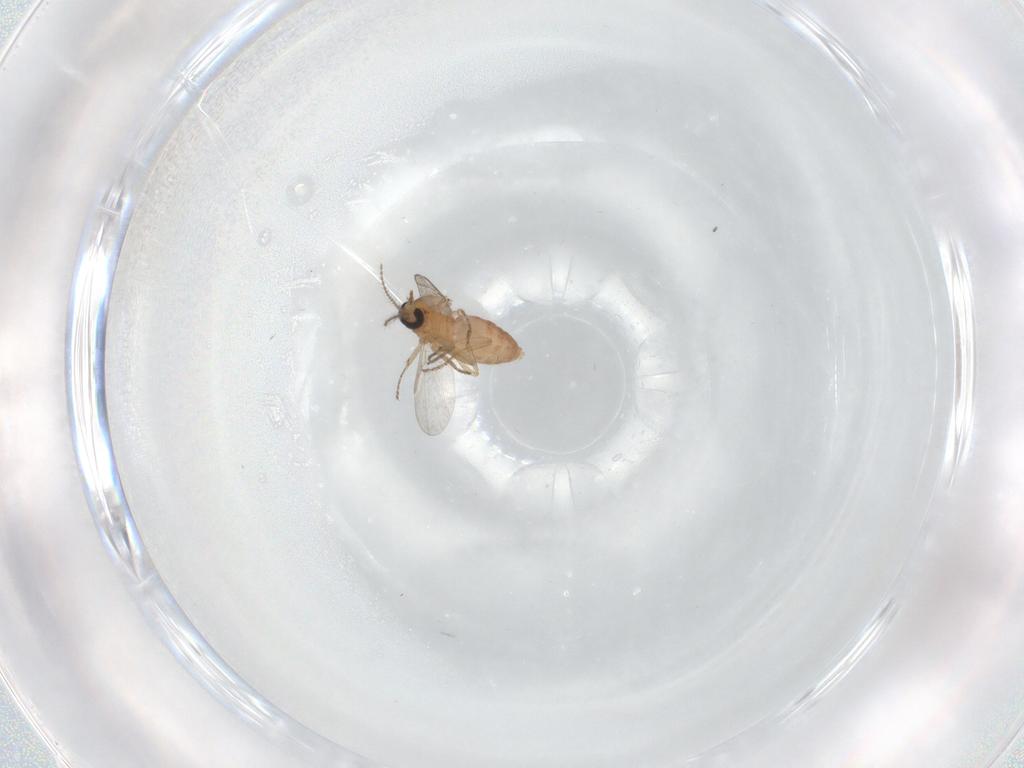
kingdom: Animalia
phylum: Arthropoda
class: Insecta
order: Diptera
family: Ceratopogonidae
